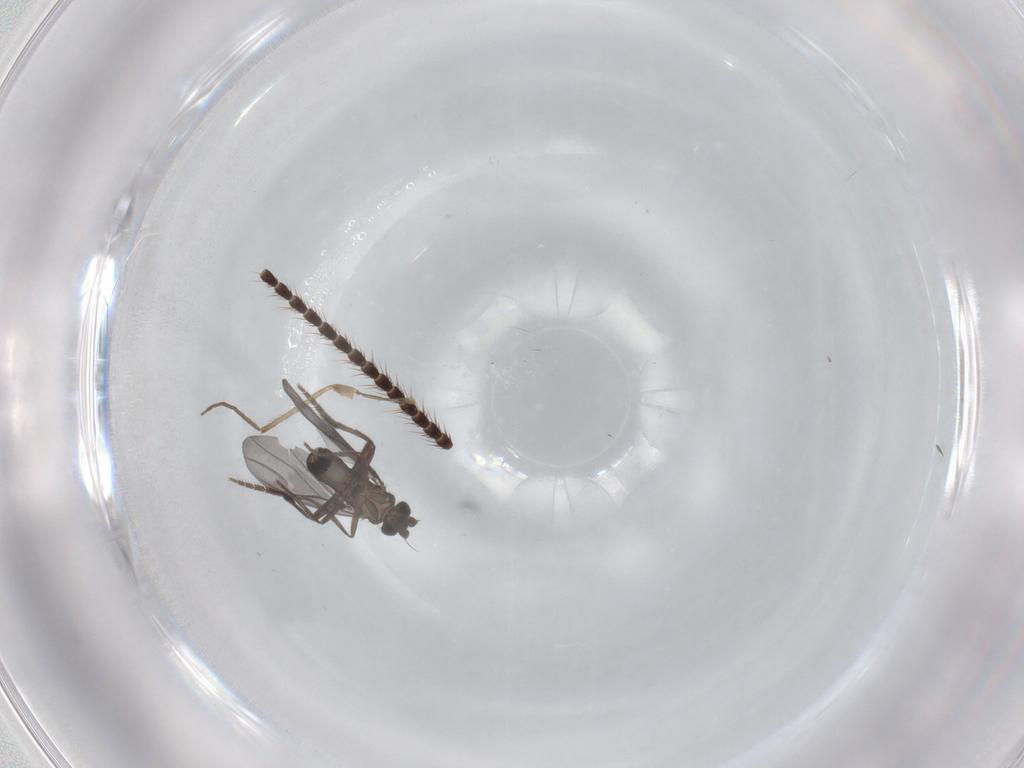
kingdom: Animalia
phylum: Arthropoda
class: Insecta
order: Diptera
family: Phoridae
